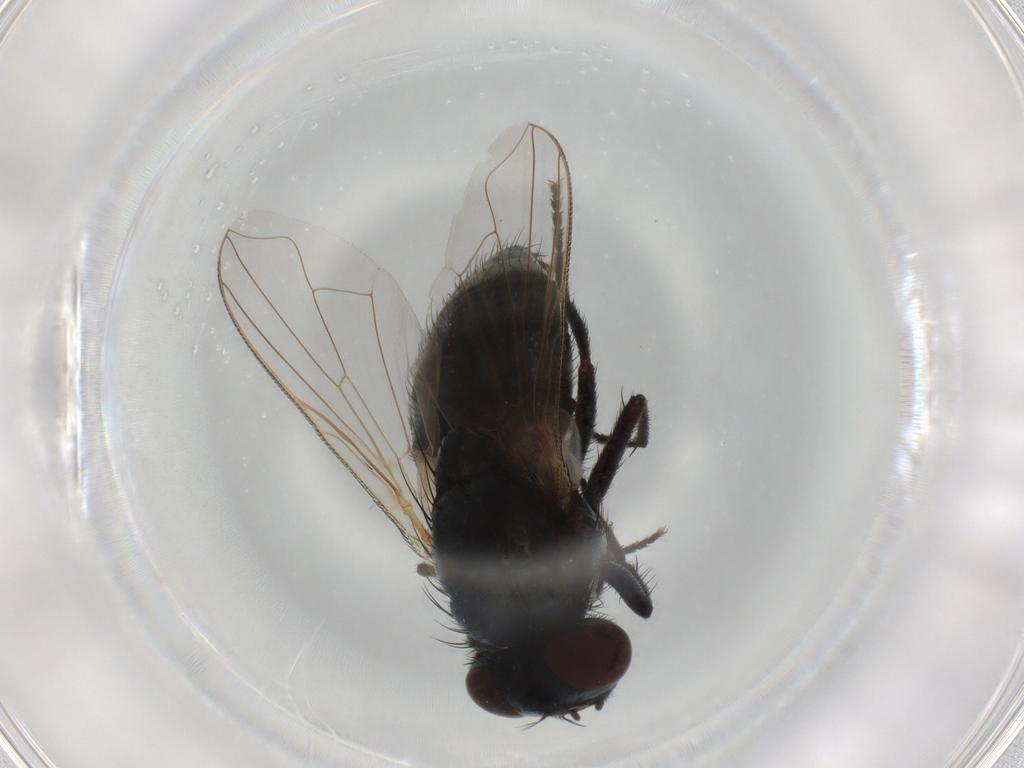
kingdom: Animalia
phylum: Arthropoda
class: Insecta
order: Diptera
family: Muscidae
